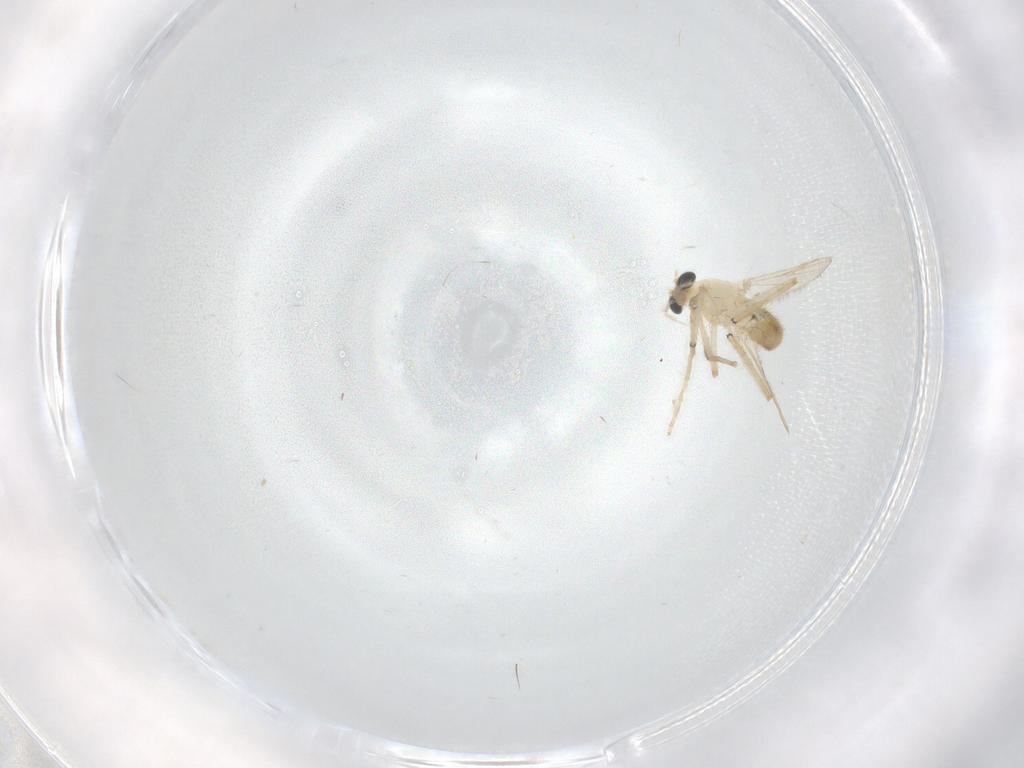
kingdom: Animalia
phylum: Arthropoda
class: Insecta
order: Diptera
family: Chironomidae
